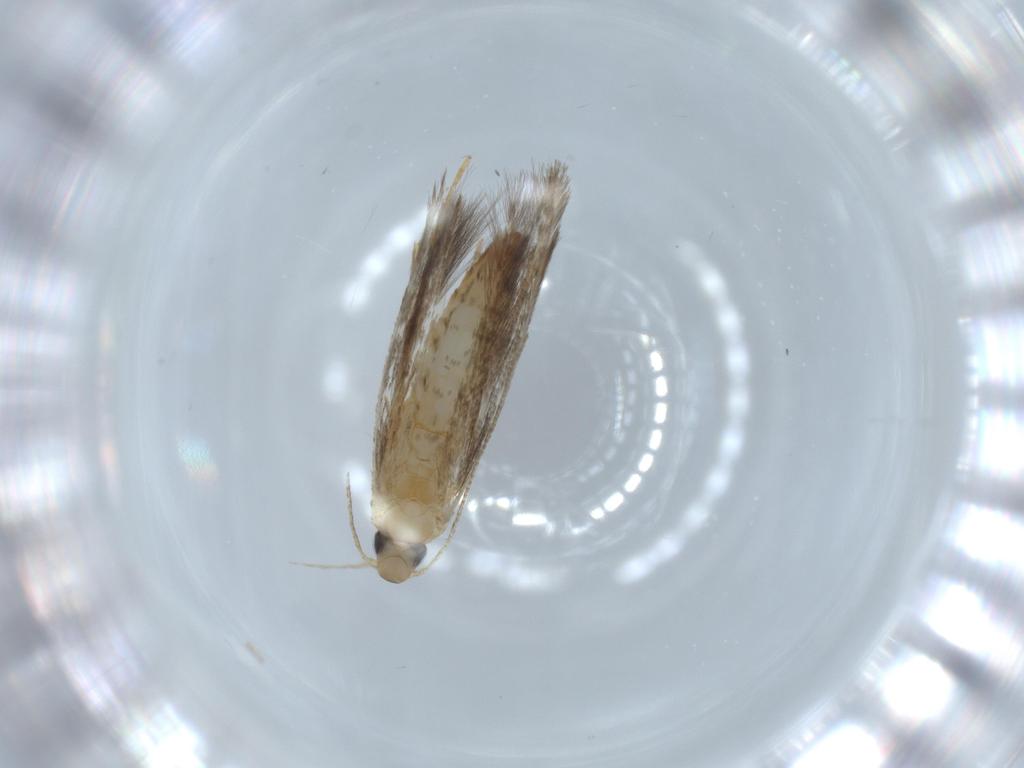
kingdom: Animalia
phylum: Arthropoda
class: Insecta
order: Lepidoptera
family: Tischeriidae
